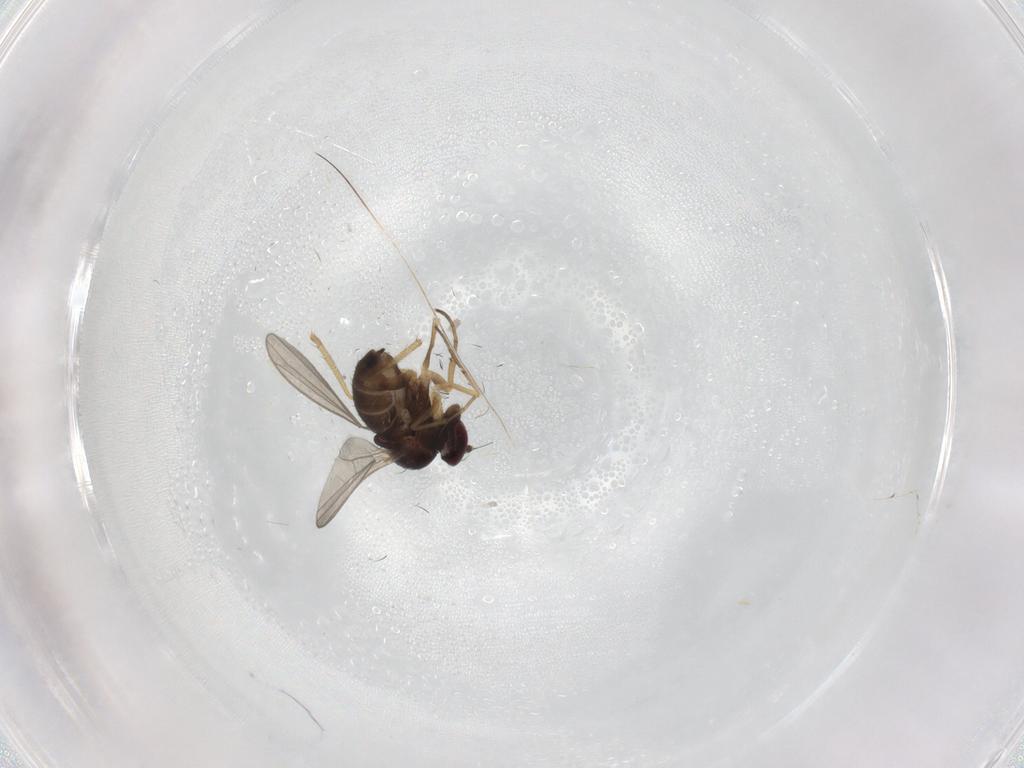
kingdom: Animalia
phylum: Arthropoda
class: Insecta
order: Diptera
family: Dolichopodidae
